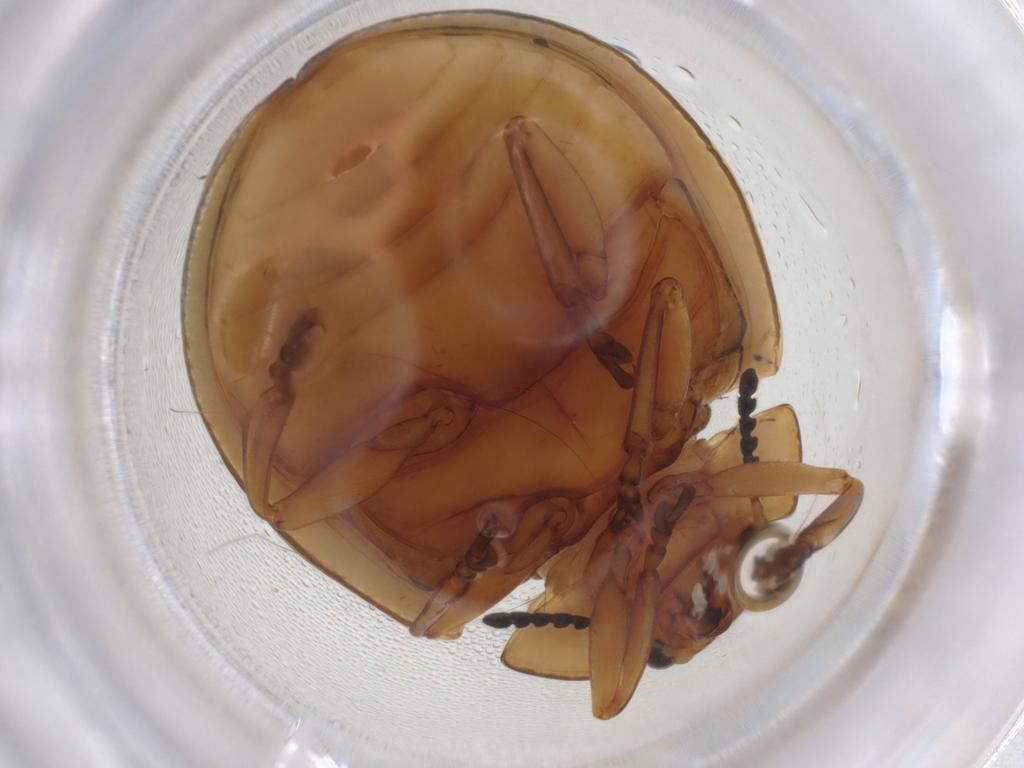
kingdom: Animalia
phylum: Arthropoda
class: Insecta
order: Coleoptera
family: Chrysomelidae
